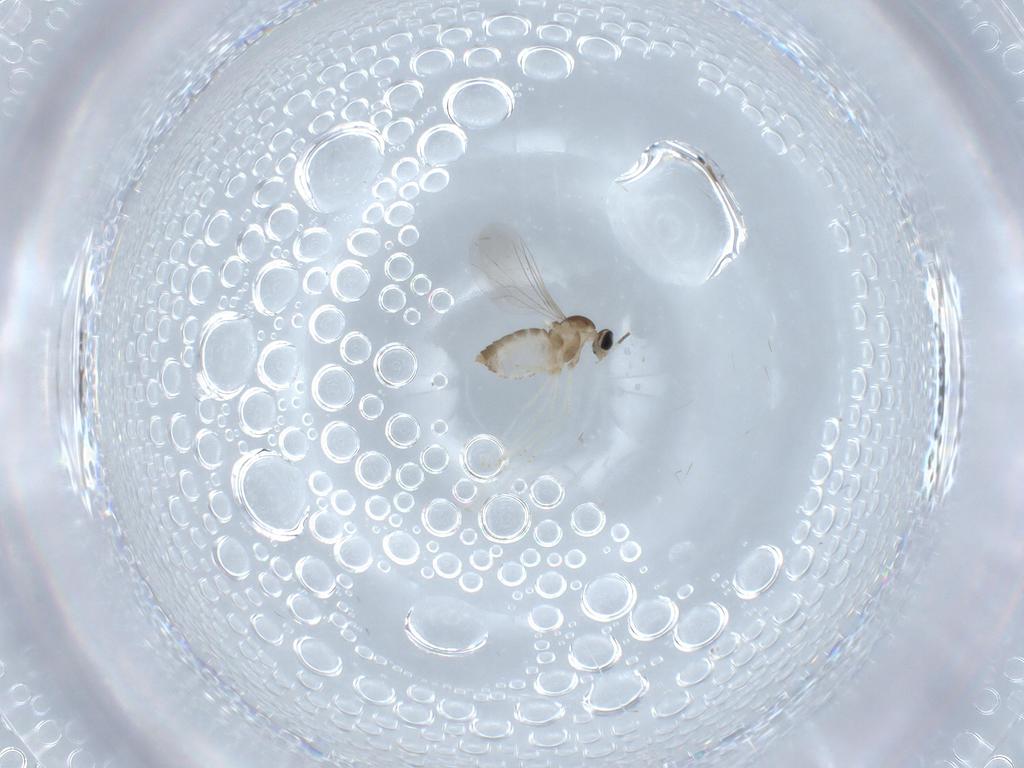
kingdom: Animalia
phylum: Arthropoda
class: Insecta
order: Diptera
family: Cecidomyiidae
